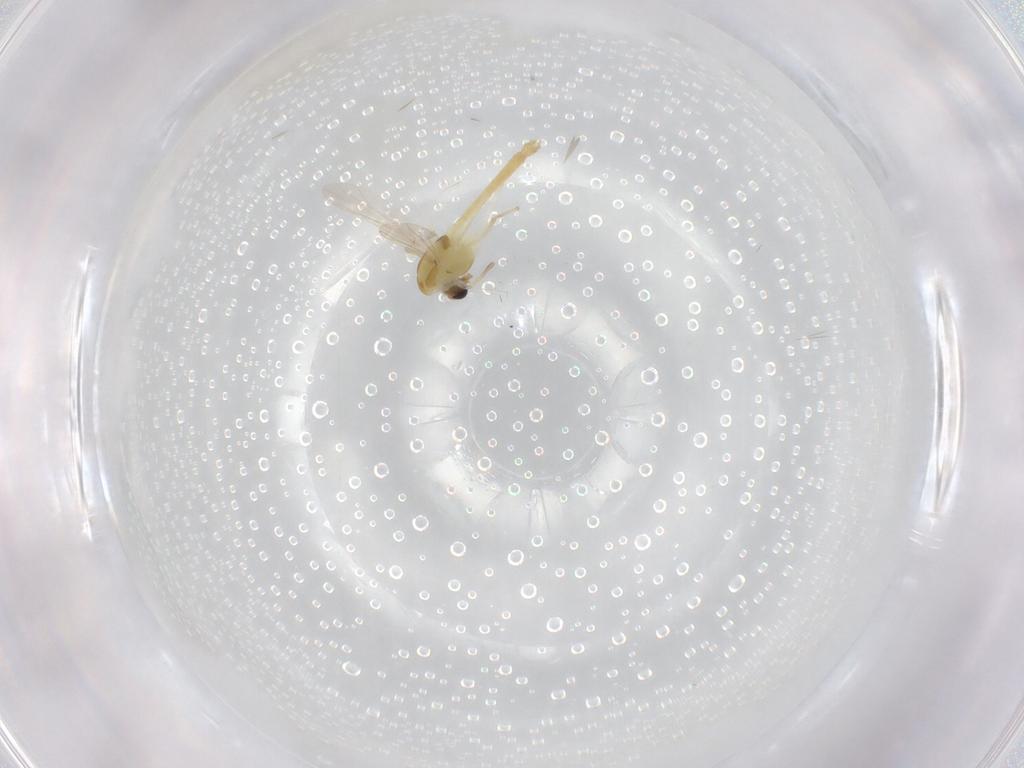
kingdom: Animalia
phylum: Arthropoda
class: Insecta
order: Diptera
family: Chironomidae
